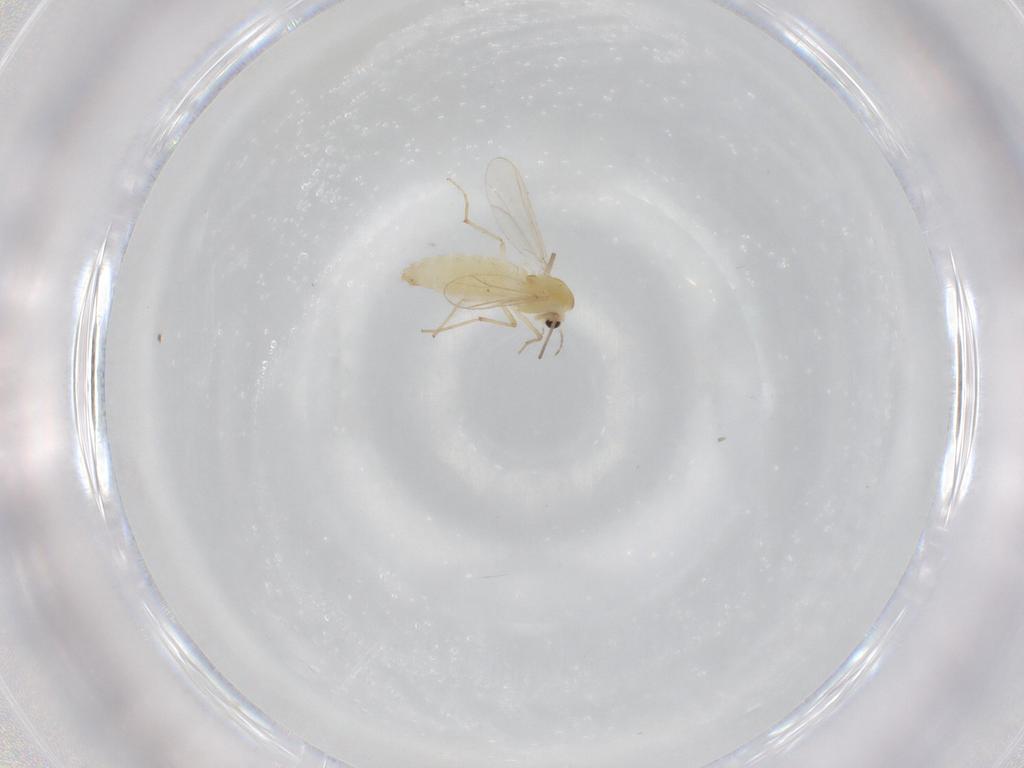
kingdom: Animalia
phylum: Arthropoda
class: Insecta
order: Diptera
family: Chironomidae
